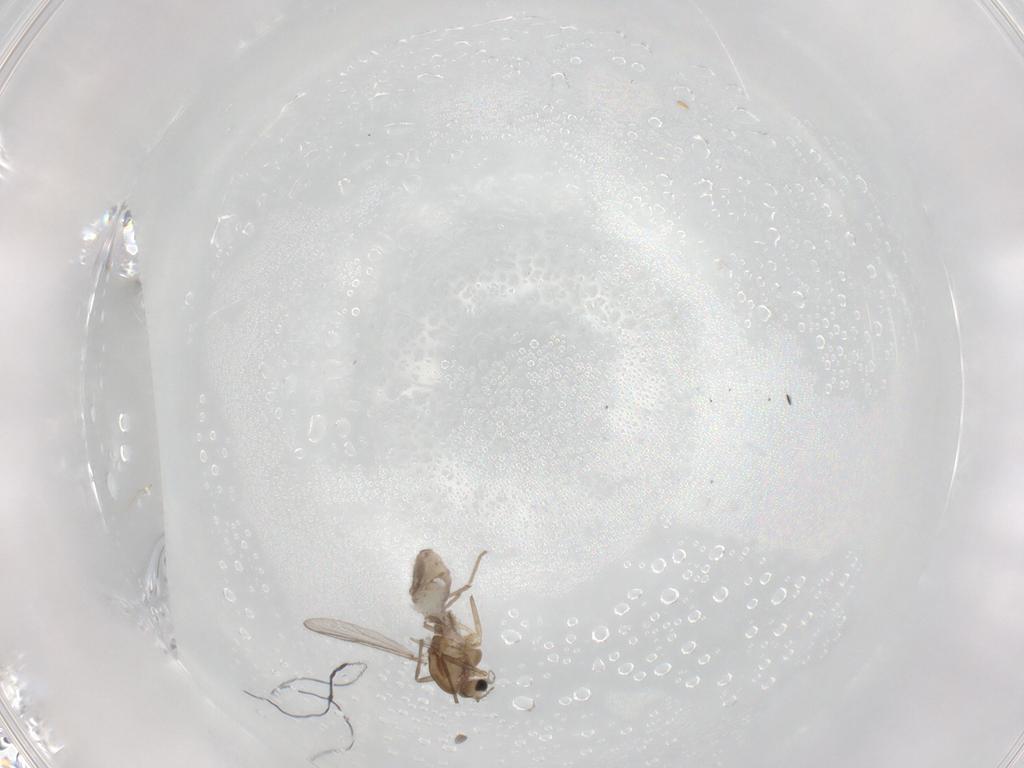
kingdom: Animalia
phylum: Arthropoda
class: Insecta
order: Diptera
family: Chironomidae
